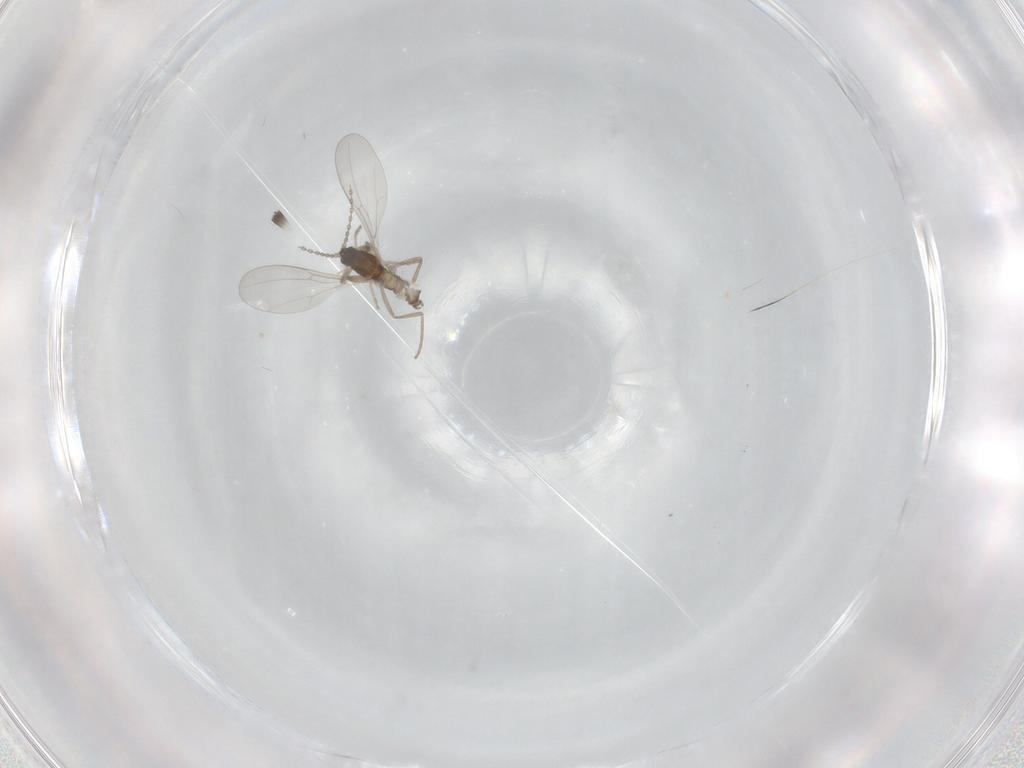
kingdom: Animalia
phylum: Arthropoda
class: Insecta
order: Diptera
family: Cecidomyiidae
